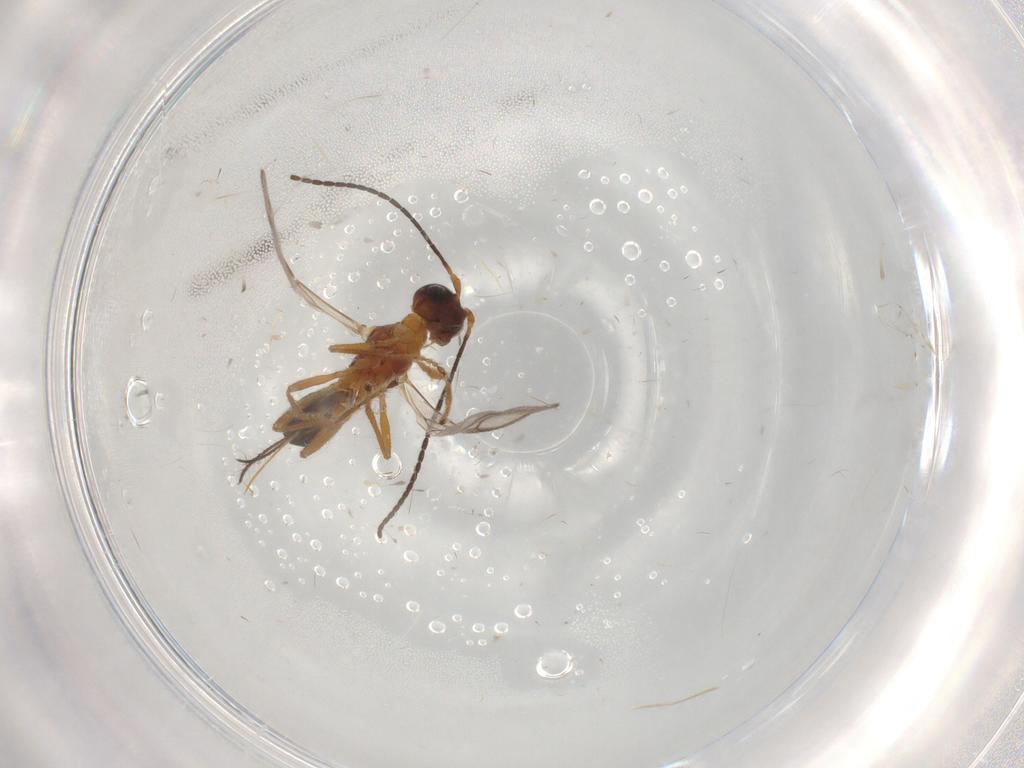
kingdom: Animalia
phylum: Arthropoda
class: Insecta
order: Hymenoptera
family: Braconidae
